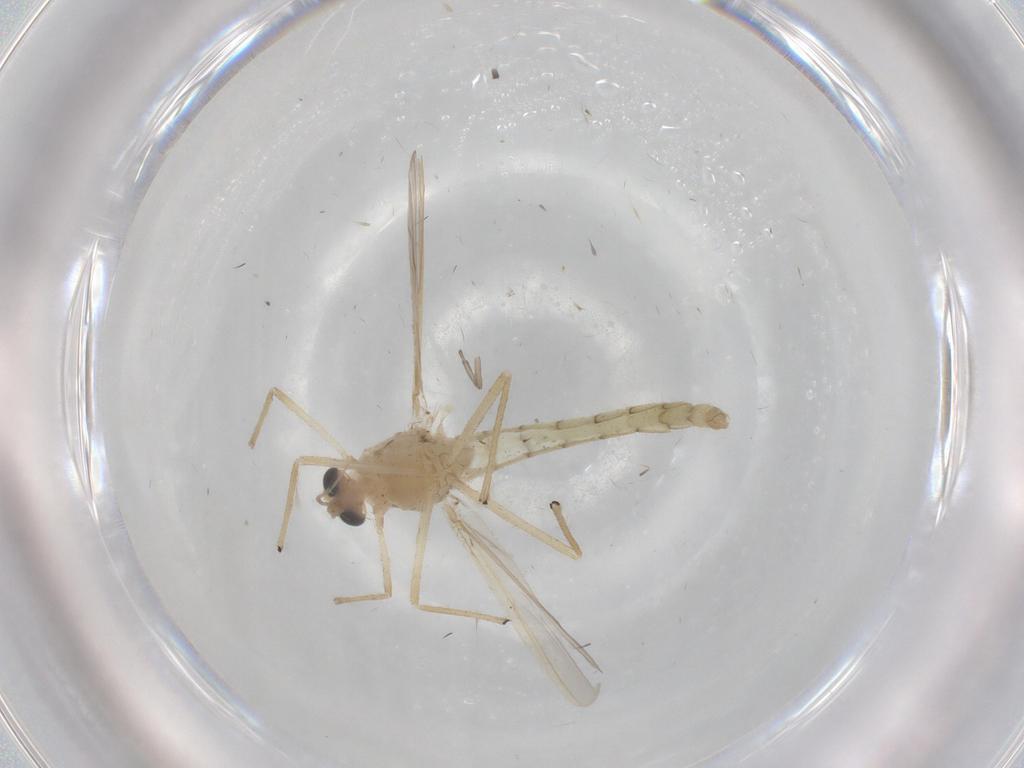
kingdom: Animalia
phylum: Arthropoda
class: Insecta
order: Diptera
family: Chironomidae
